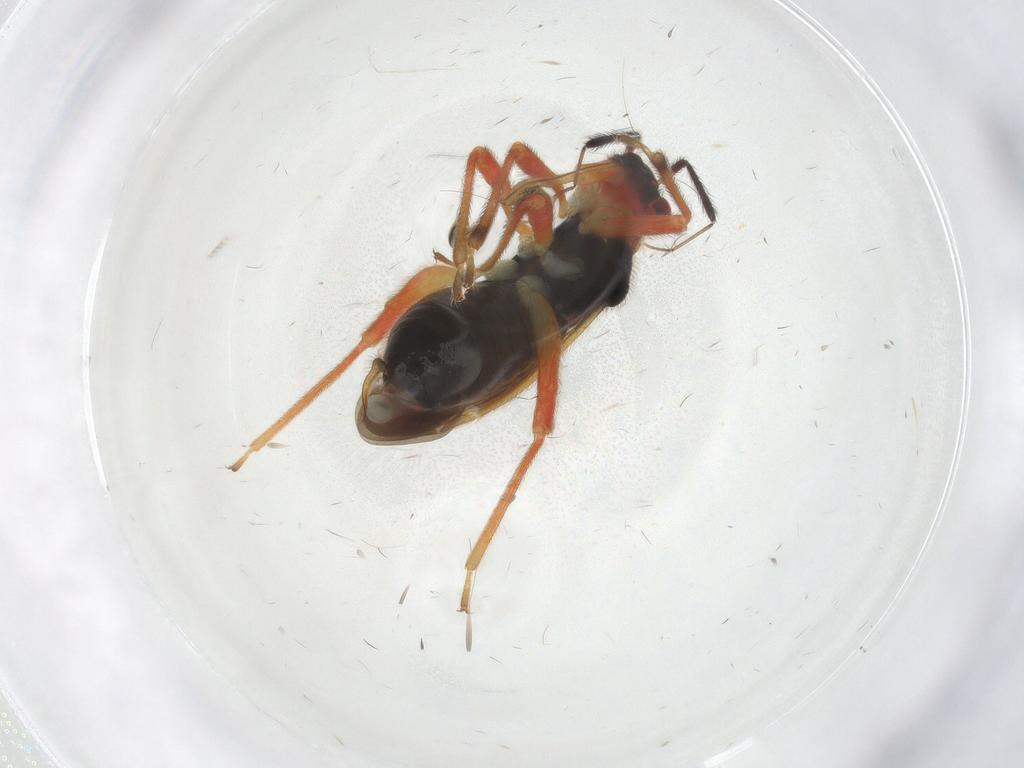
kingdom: Animalia
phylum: Arthropoda
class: Insecta
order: Hemiptera
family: Miridae
